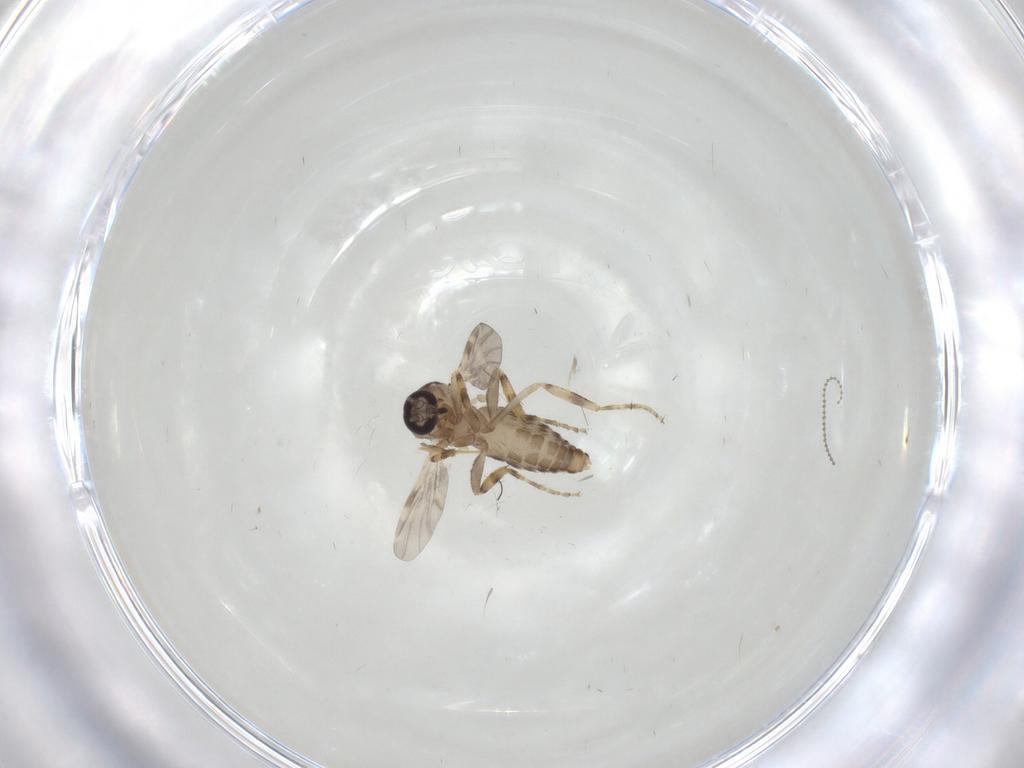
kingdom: Animalia
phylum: Arthropoda
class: Insecta
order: Diptera
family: Ceratopogonidae
